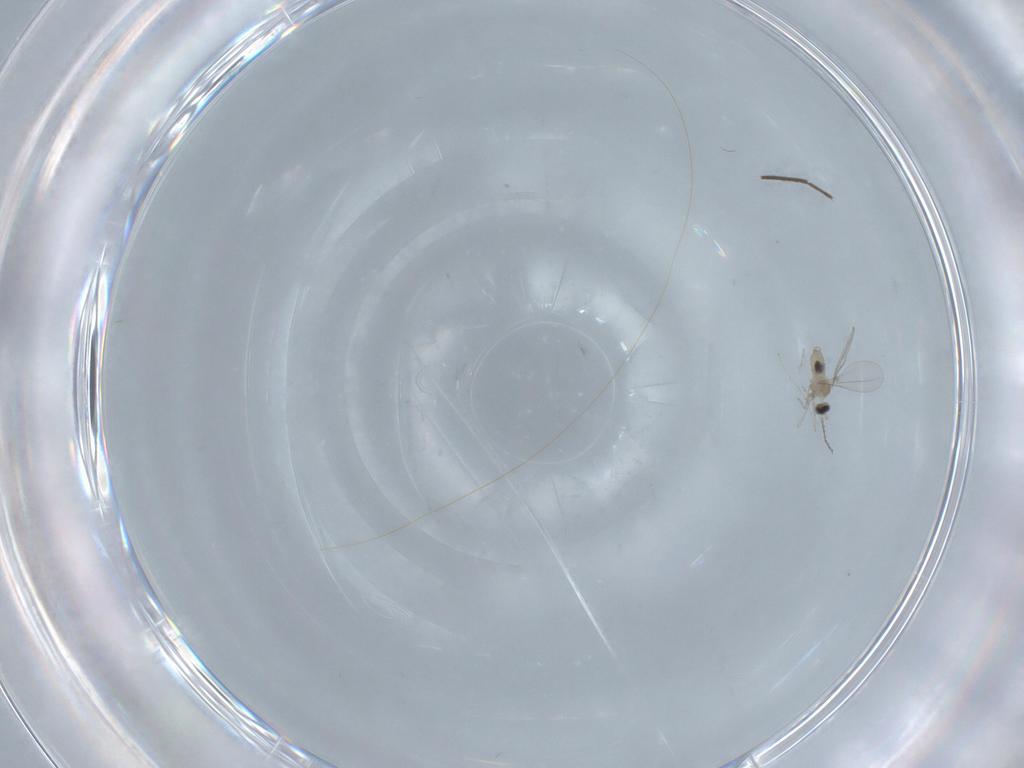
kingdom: Animalia
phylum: Arthropoda
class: Insecta
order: Diptera
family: Cecidomyiidae
